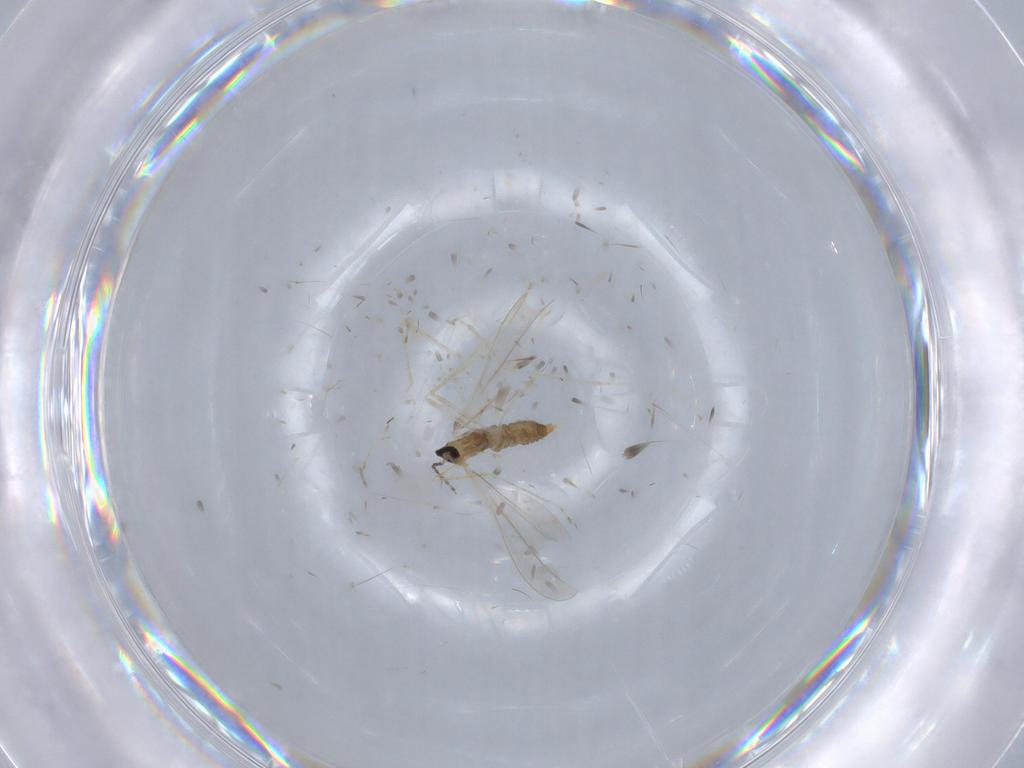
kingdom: Animalia
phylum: Arthropoda
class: Insecta
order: Diptera
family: Cecidomyiidae
